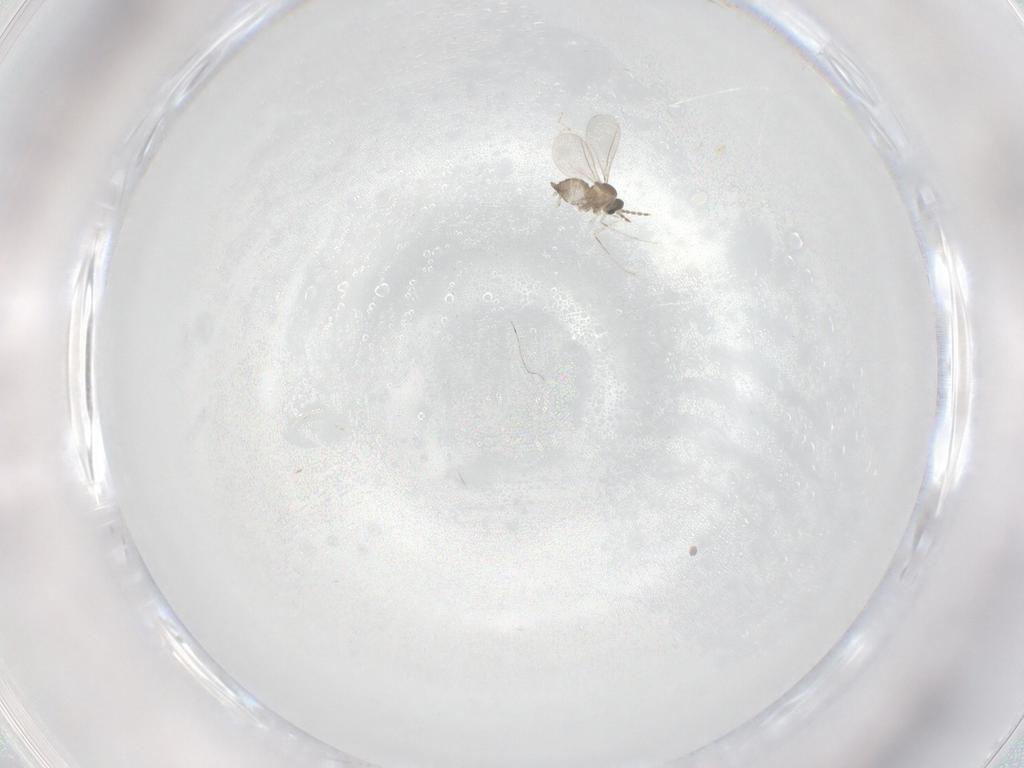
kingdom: Animalia
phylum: Arthropoda
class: Insecta
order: Diptera
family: Cecidomyiidae
